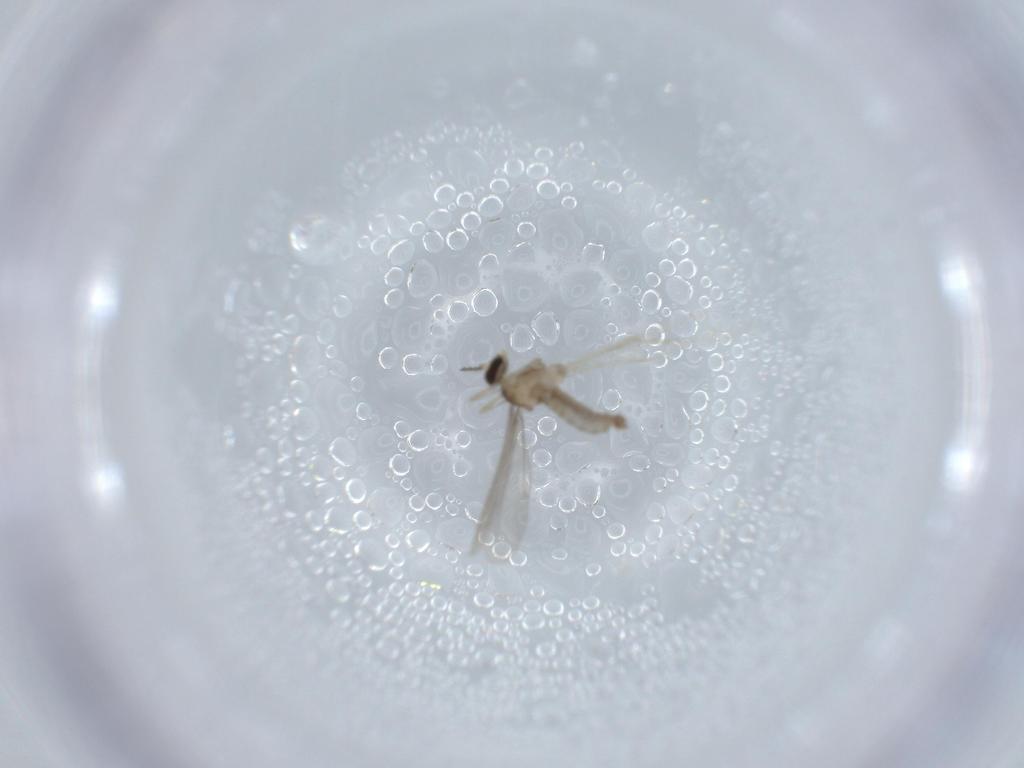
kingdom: Animalia
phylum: Arthropoda
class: Insecta
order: Diptera
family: Cecidomyiidae
